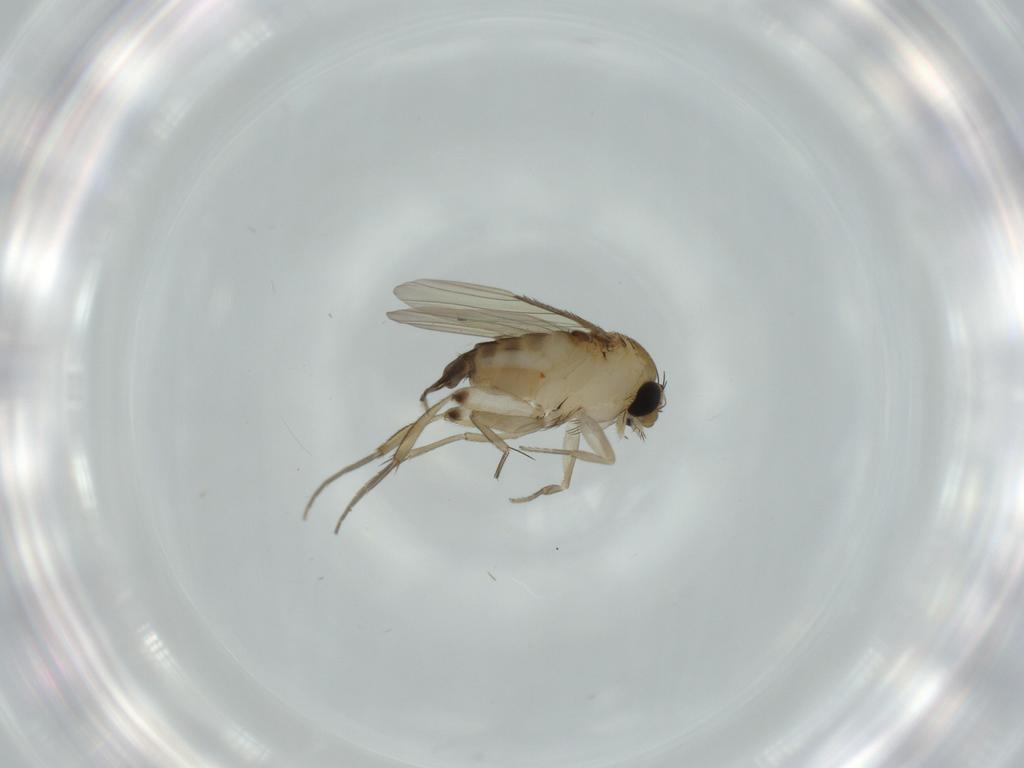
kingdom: Animalia
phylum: Arthropoda
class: Insecta
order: Diptera
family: Phoridae
